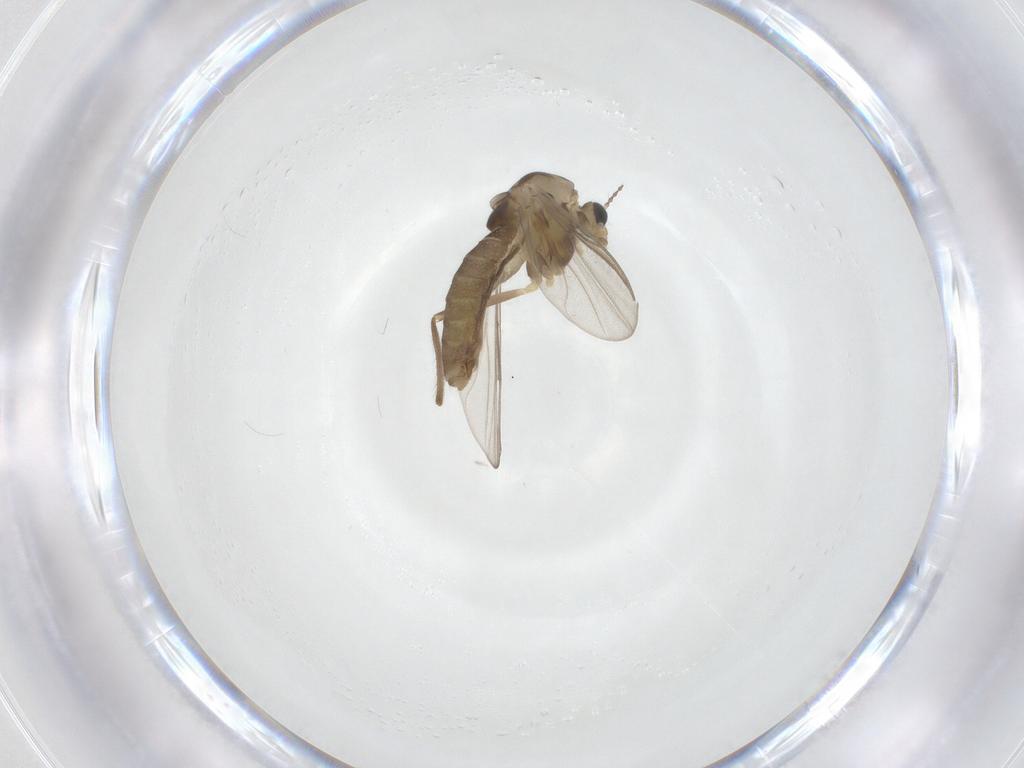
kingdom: Animalia
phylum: Arthropoda
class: Insecta
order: Diptera
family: Chironomidae
